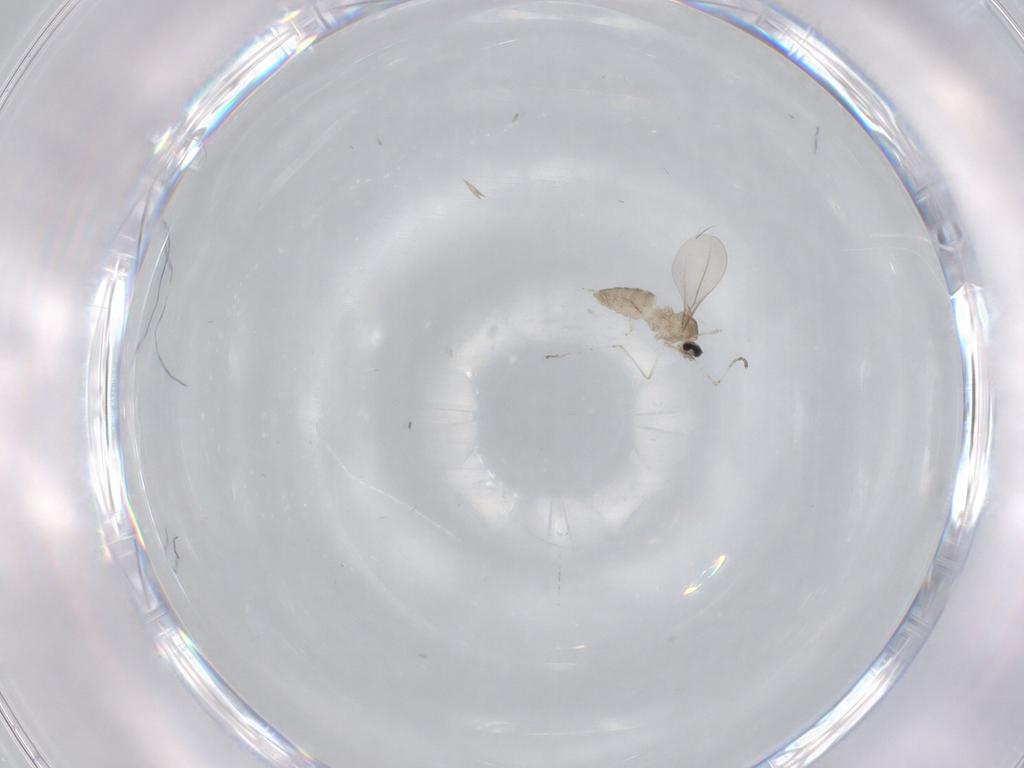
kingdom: Animalia
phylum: Arthropoda
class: Insecta
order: Diptera
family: Cecidomyiidae
